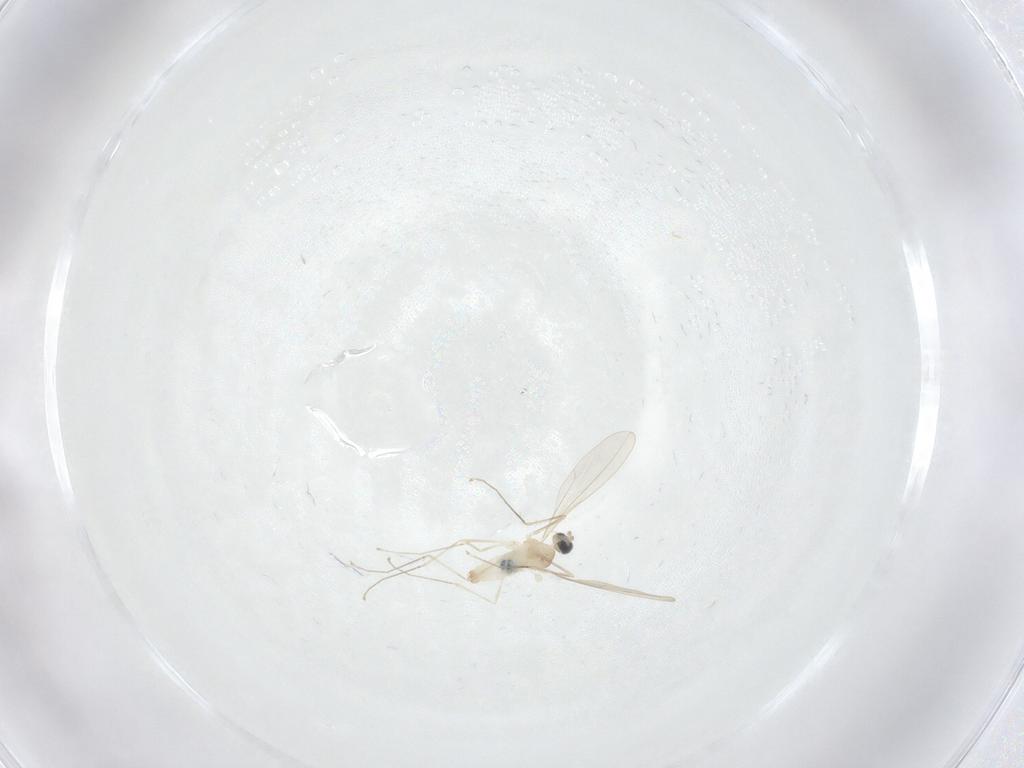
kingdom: Animalia
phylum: Arthropoda
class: Insecta
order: Diptera
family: Cecidomyiidae
